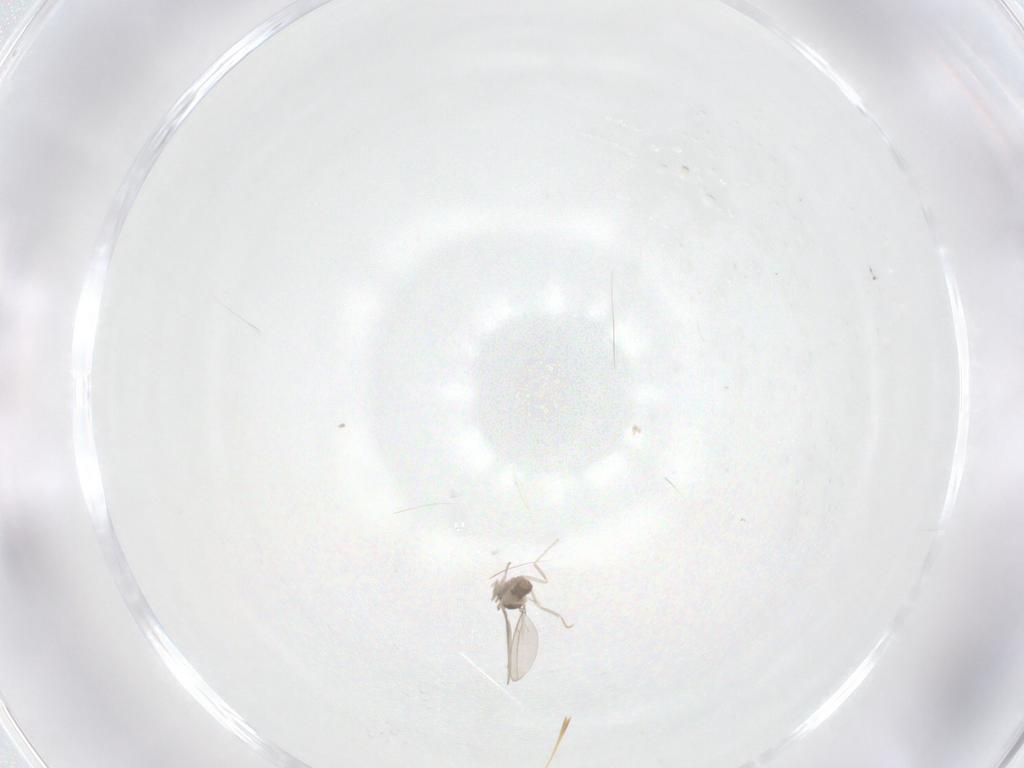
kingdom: Animalia
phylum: Arthropoda
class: Insecta
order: Diptera
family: Cecidomyiidae
